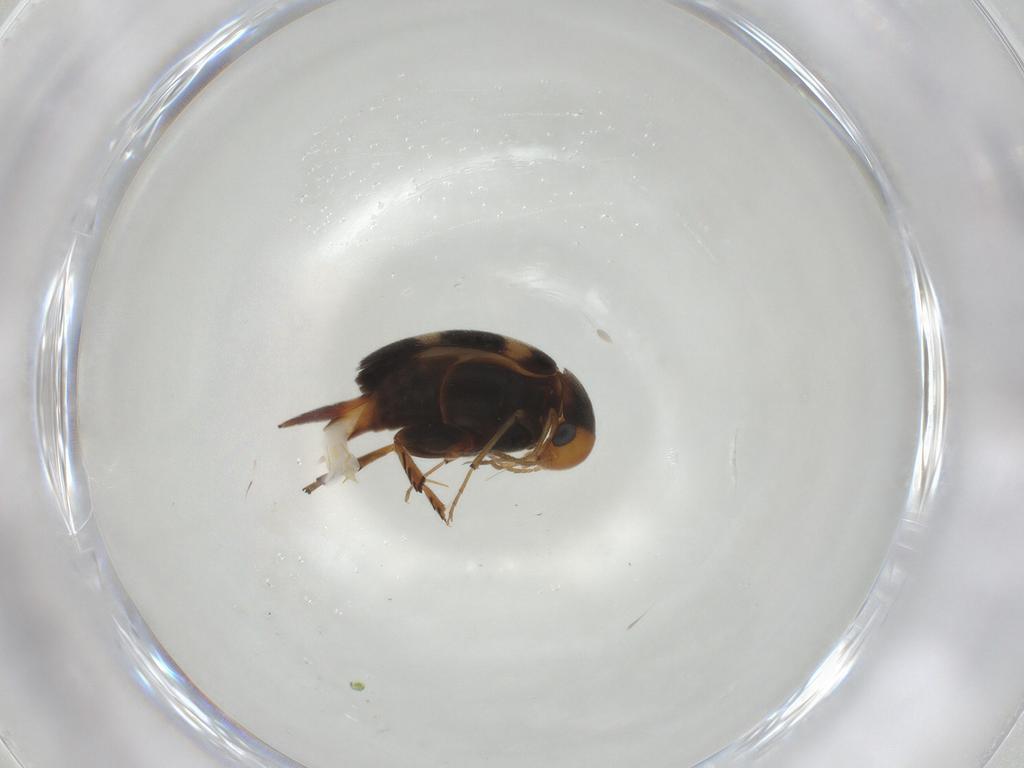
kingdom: Animalia
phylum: Arthropoda
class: Insecta
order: Coleoptera
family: Mordellidae
